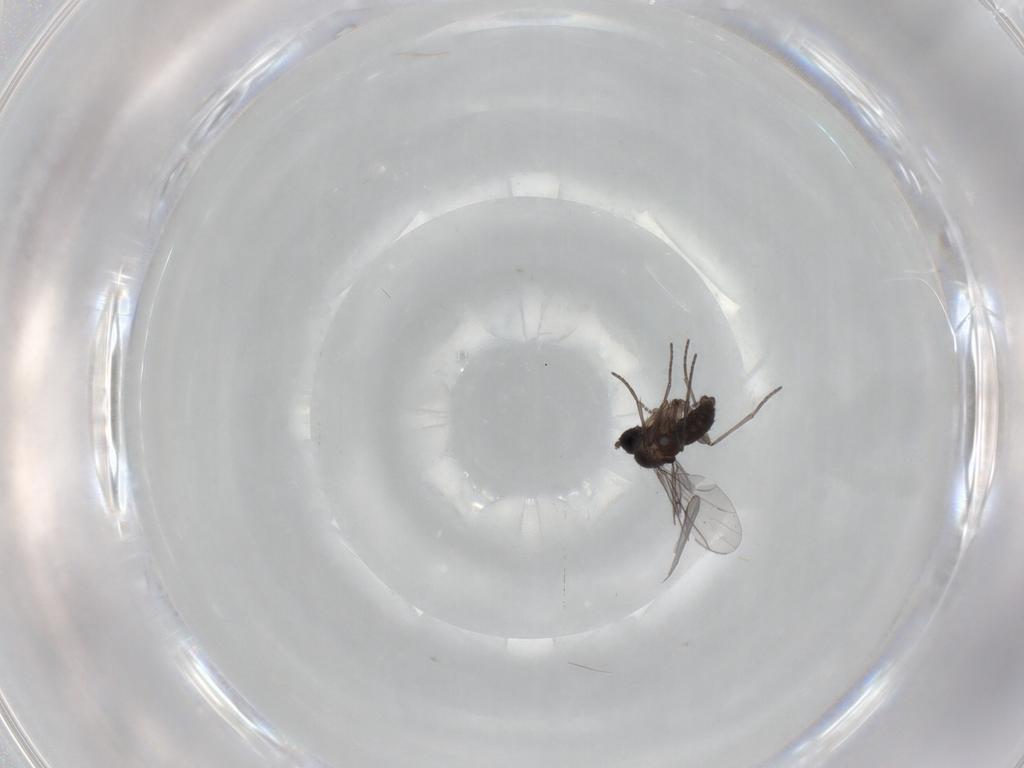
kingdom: Animalia
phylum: Arthropoda
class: Insecta
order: Diptera
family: Sciaridae
